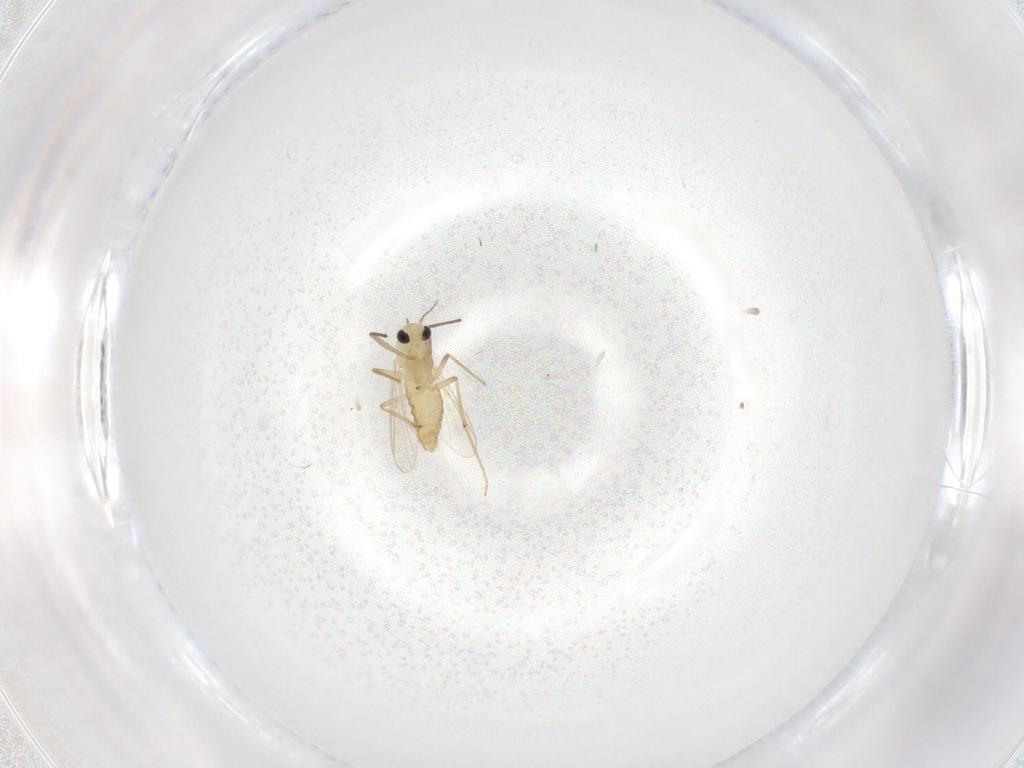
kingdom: Animalia
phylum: Arthropoda
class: Insecta
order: Diptera
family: Chironomidae
